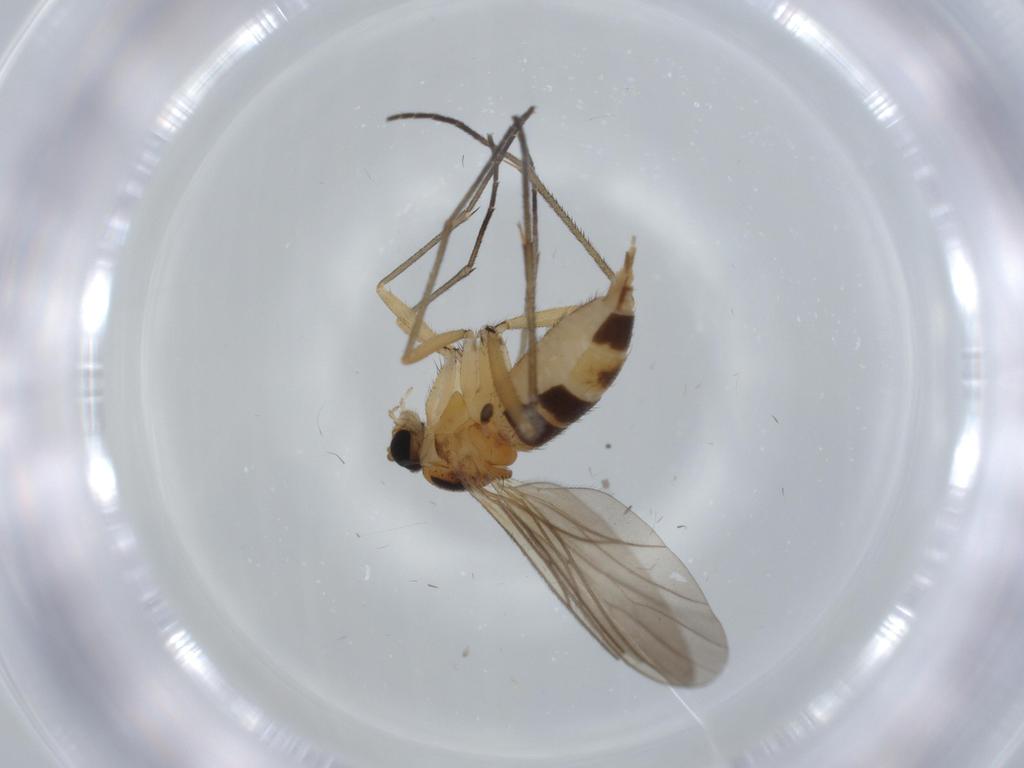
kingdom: Animalia
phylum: Arthropoda
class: Insecta
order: Diptera
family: Sciaridae
